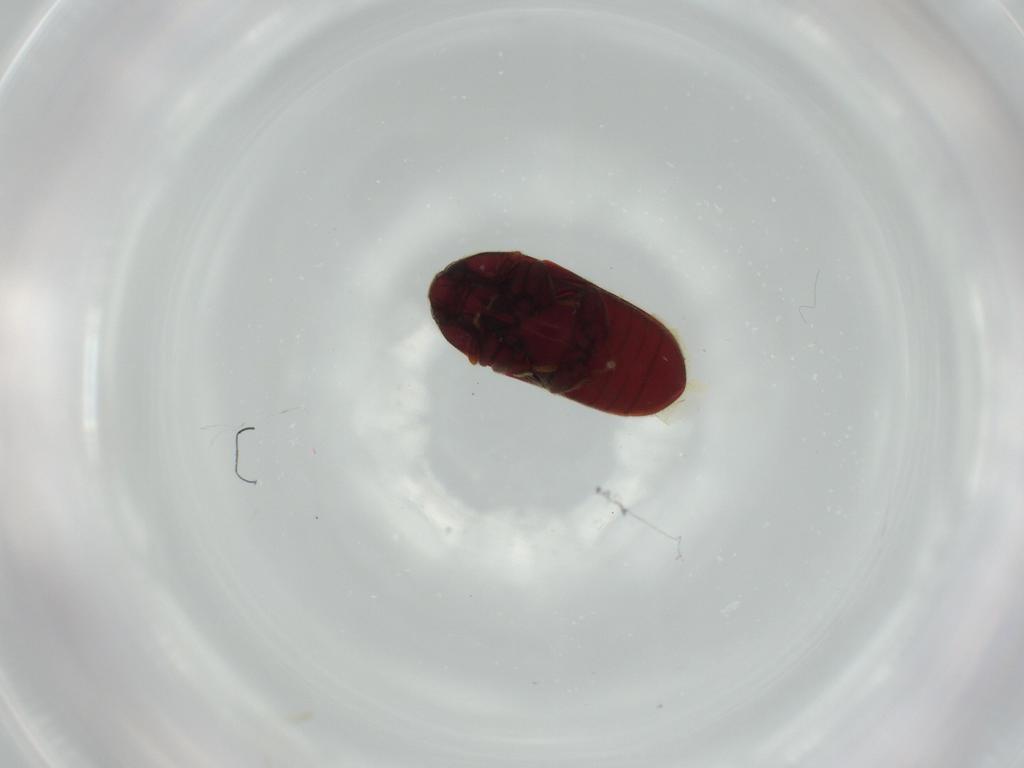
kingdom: Animalia
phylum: Arthropoda
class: Insecta
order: Coleoptera
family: Throscidae
